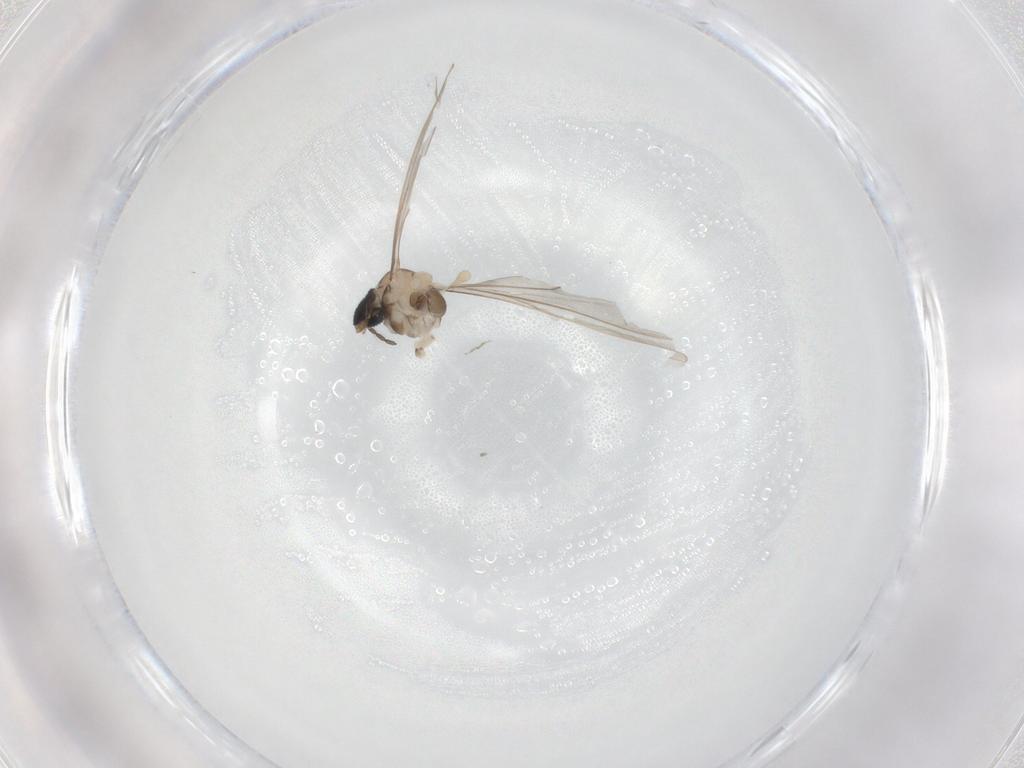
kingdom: Animalia
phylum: Arthropoda
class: Insecta
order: Diptera
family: Cecidomyiidae
